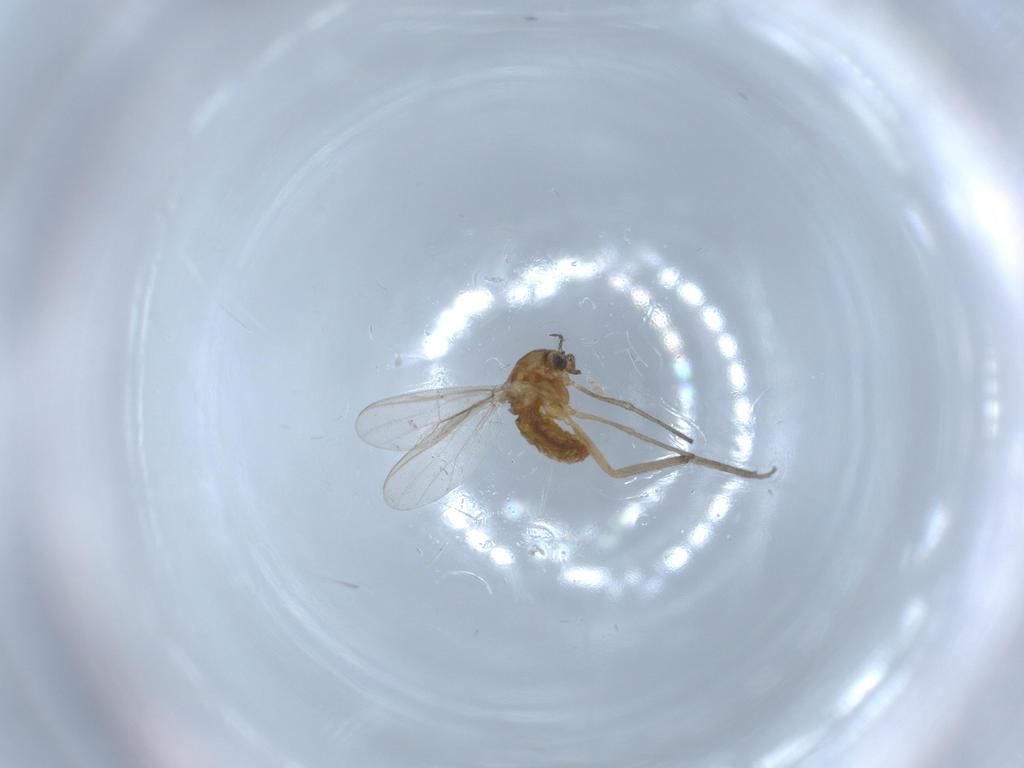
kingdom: Animalia
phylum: Arthropoda
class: Insecta
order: Diptera
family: Chironomidae
